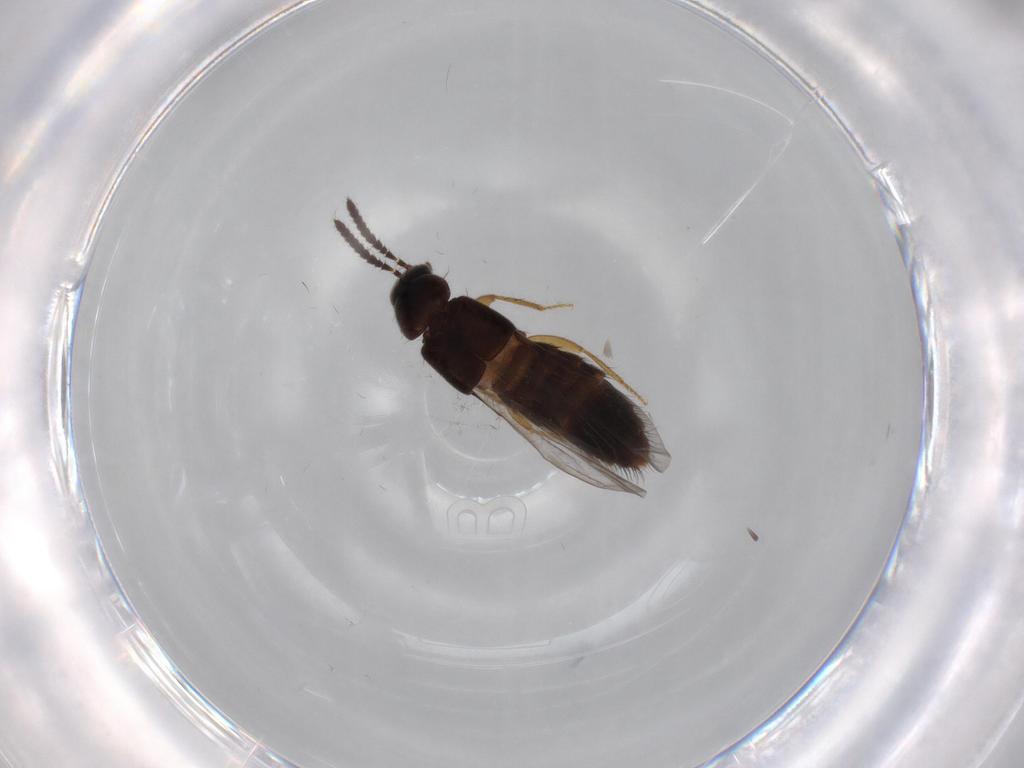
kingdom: Animalia
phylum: Arthropoda
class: Insecta
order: Coleoptera
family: Staphylinidae
